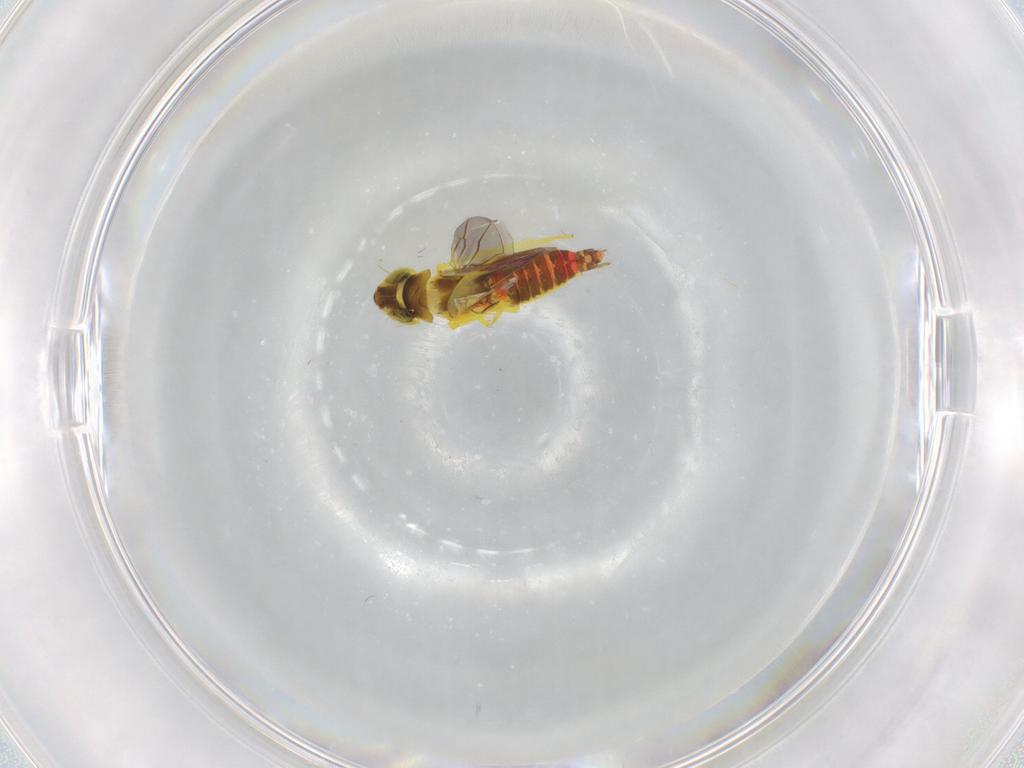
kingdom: Animalia
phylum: Arthropoda
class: Insecta
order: Hemiptera
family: Cicadellidae
